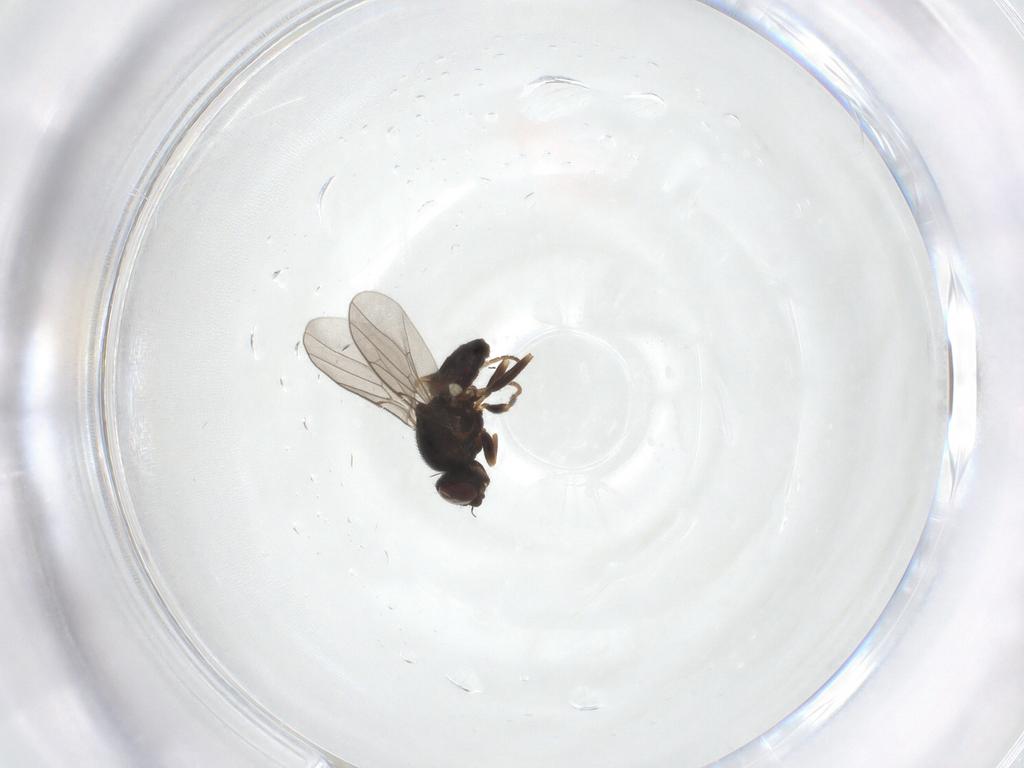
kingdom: Animalia
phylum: Arthropoda
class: Insecta
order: Diptera
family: Chloropidae
